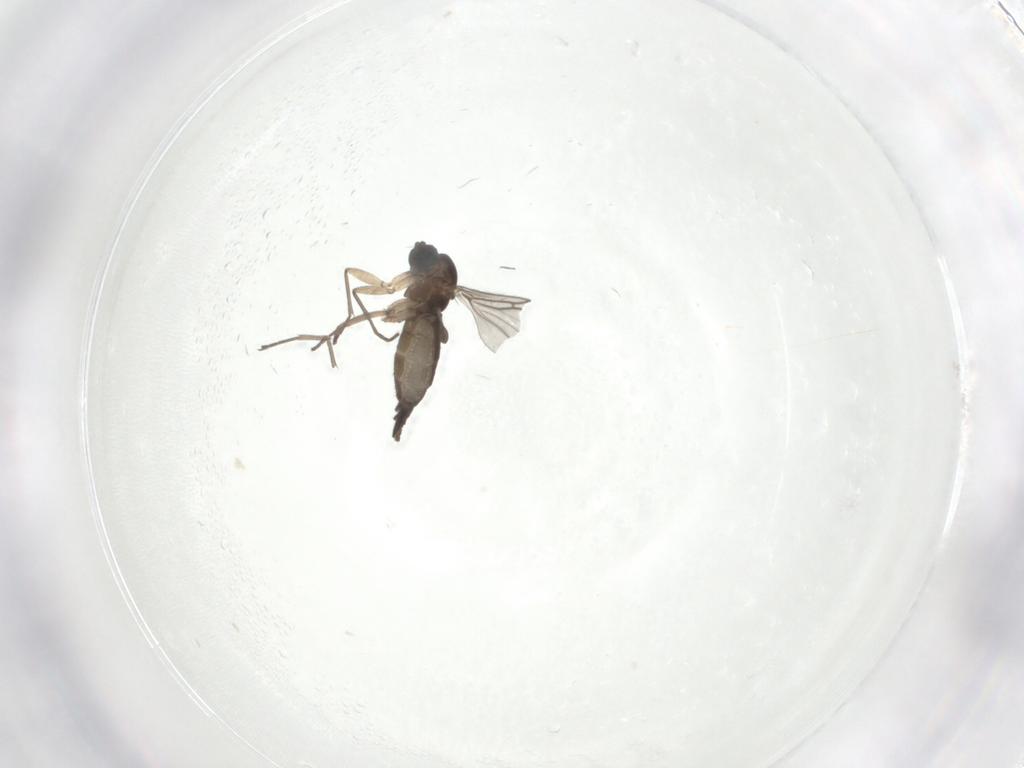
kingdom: Animalia
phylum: Arthropoda
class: Insecta
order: Diptera
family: Sciaridae
